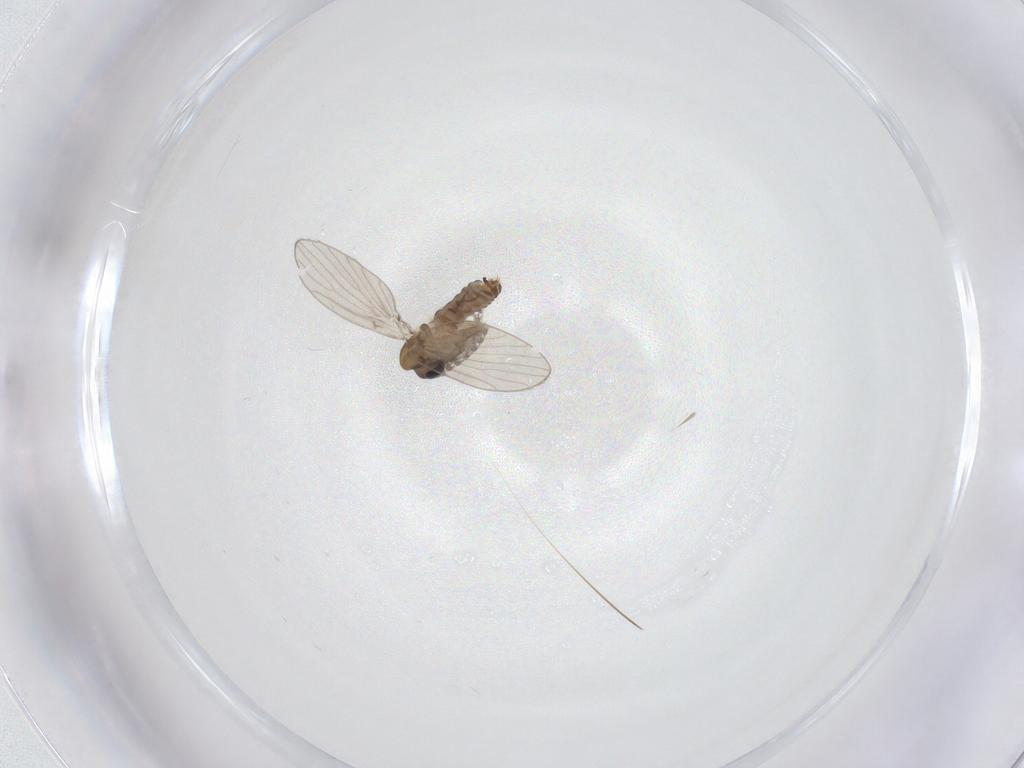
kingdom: Animalia
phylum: Arthropoda
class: Insecta
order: Diptera
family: Psychodidae
